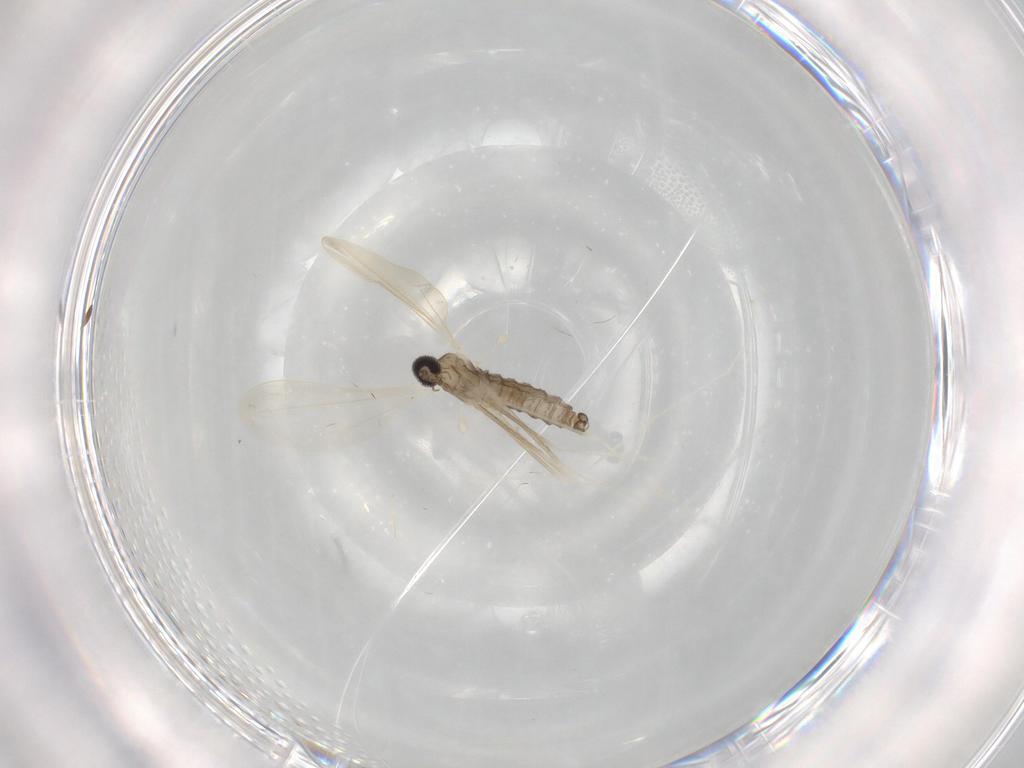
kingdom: Animalia
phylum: Arthropoda
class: Insecta
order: Diptera
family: Cecidomyiidae
